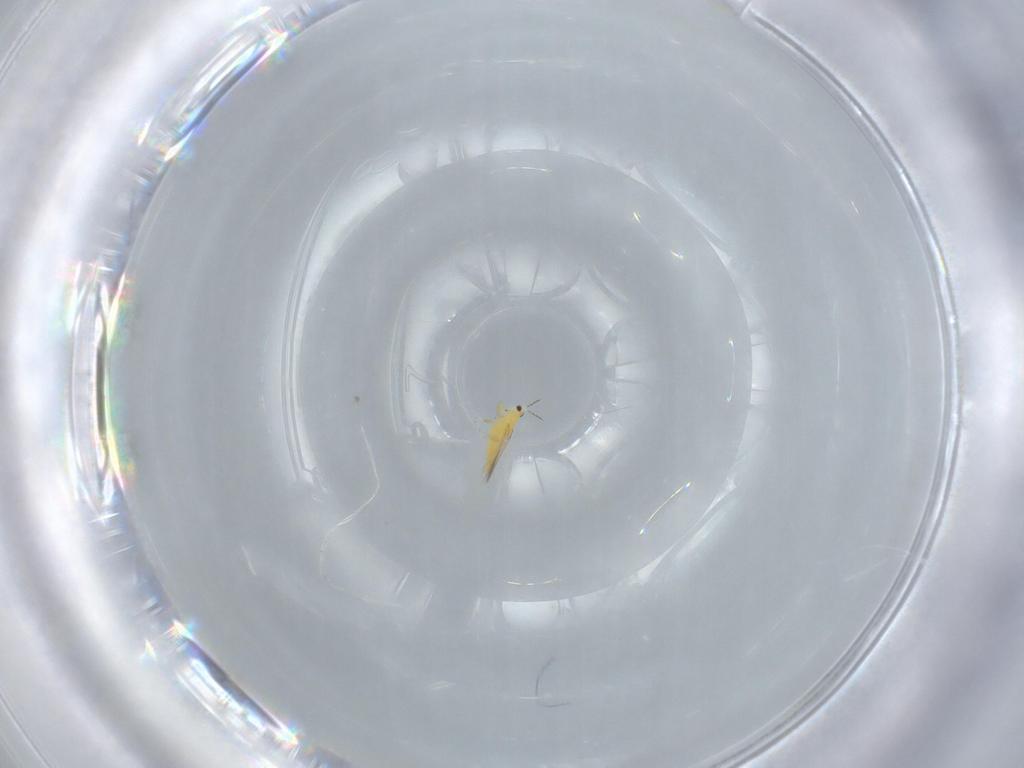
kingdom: Animalia
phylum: Arthropoda
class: Insecta
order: Thysanoptera
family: Thripidae
